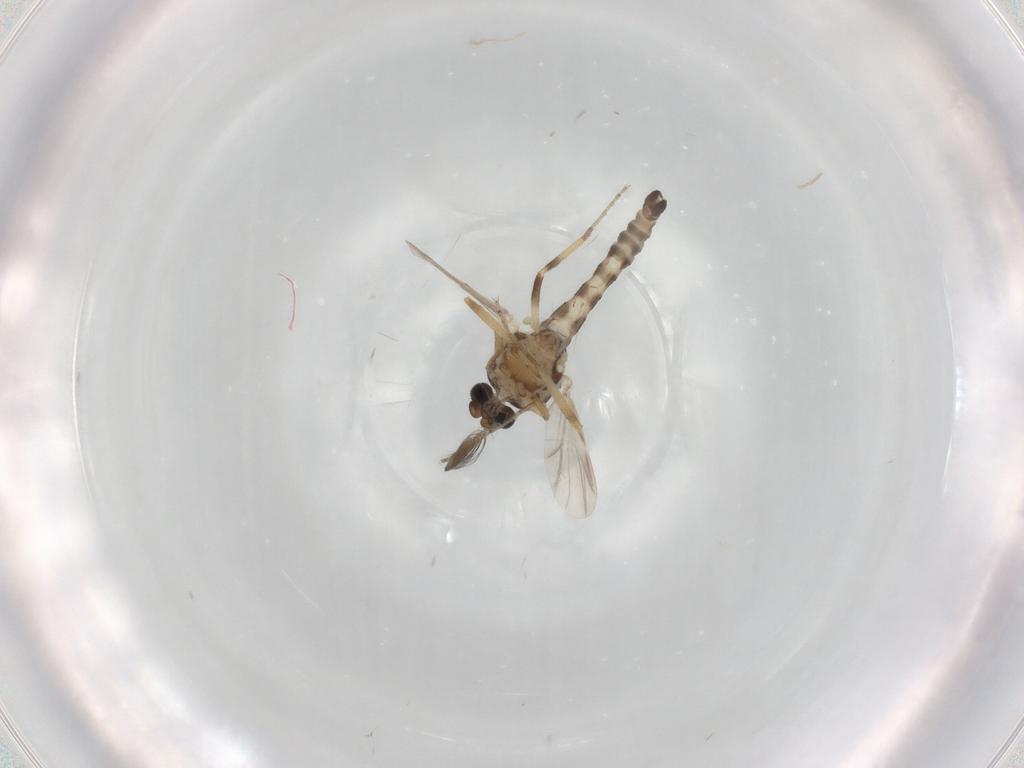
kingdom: Animalia
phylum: Arthropoda
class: Insecta
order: Diptera
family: Ceratopogonidae
